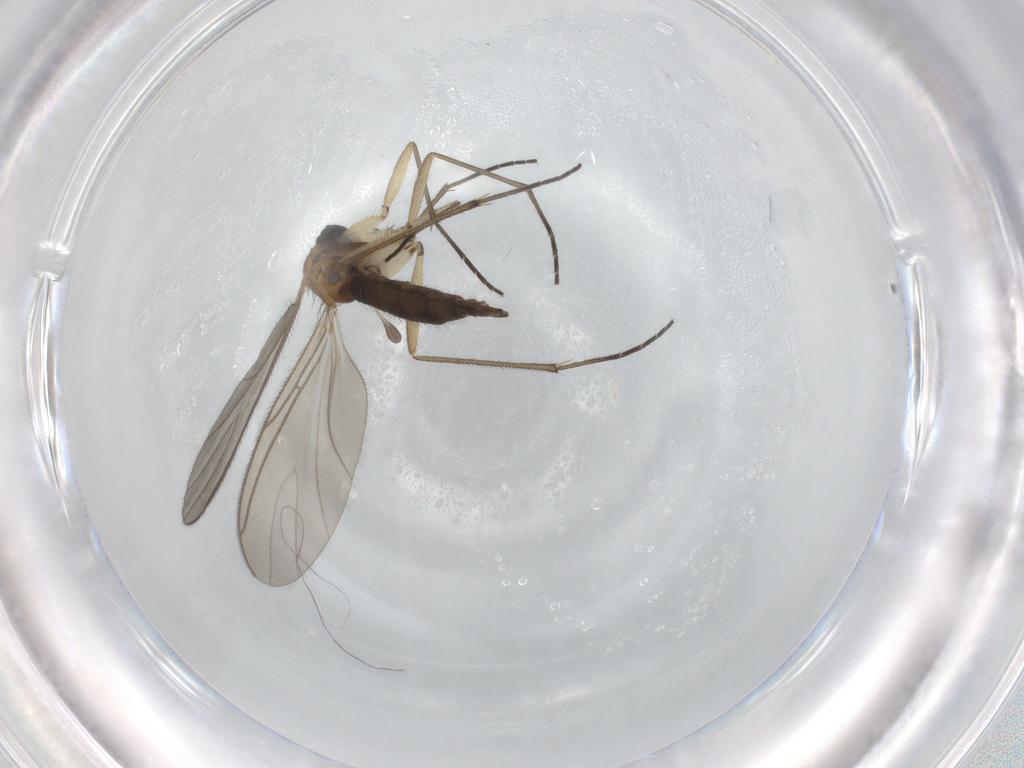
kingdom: Animalia
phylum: Arthropoda
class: Insecta
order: Diptera
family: Sciaridae
